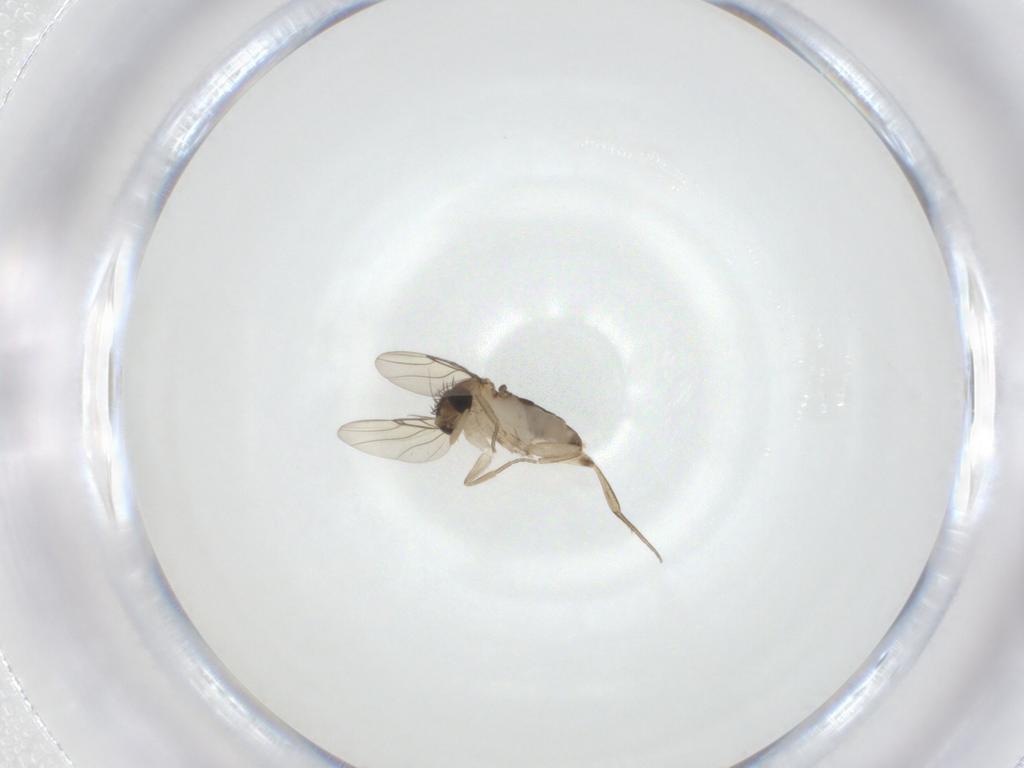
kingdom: Animalia
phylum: Arthropoda
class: Insecta
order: Diptera
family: Phoridae
